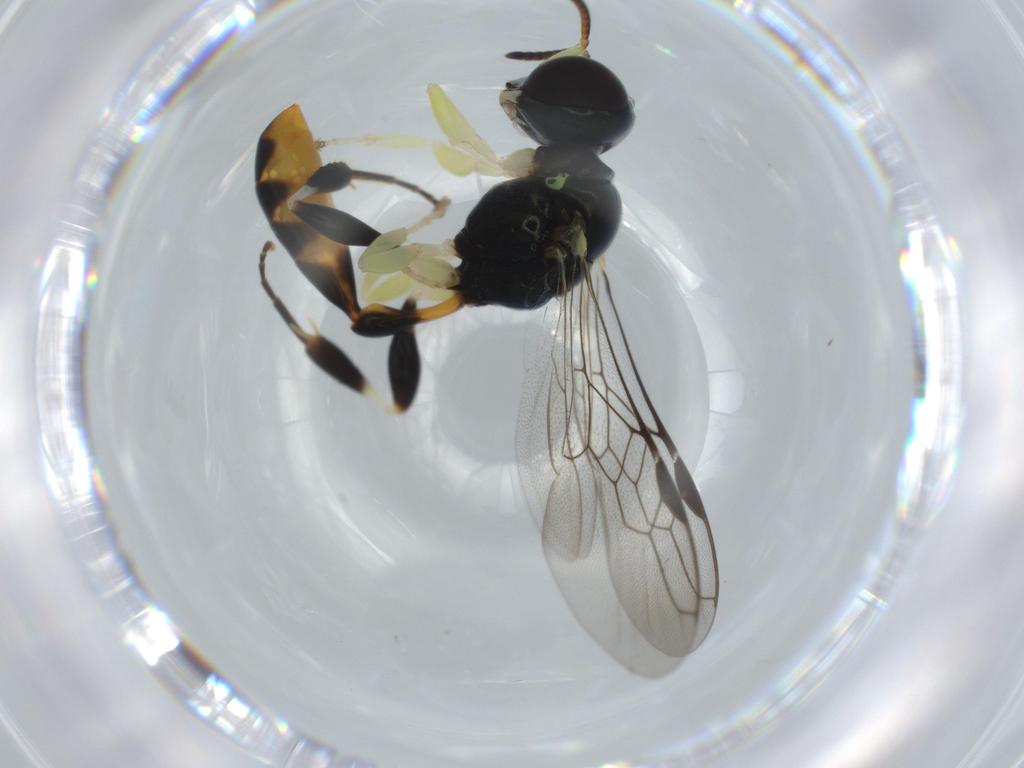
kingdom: Animalia
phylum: Arthropoda
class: Insecta
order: Hymenoptera
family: Crabronidae
